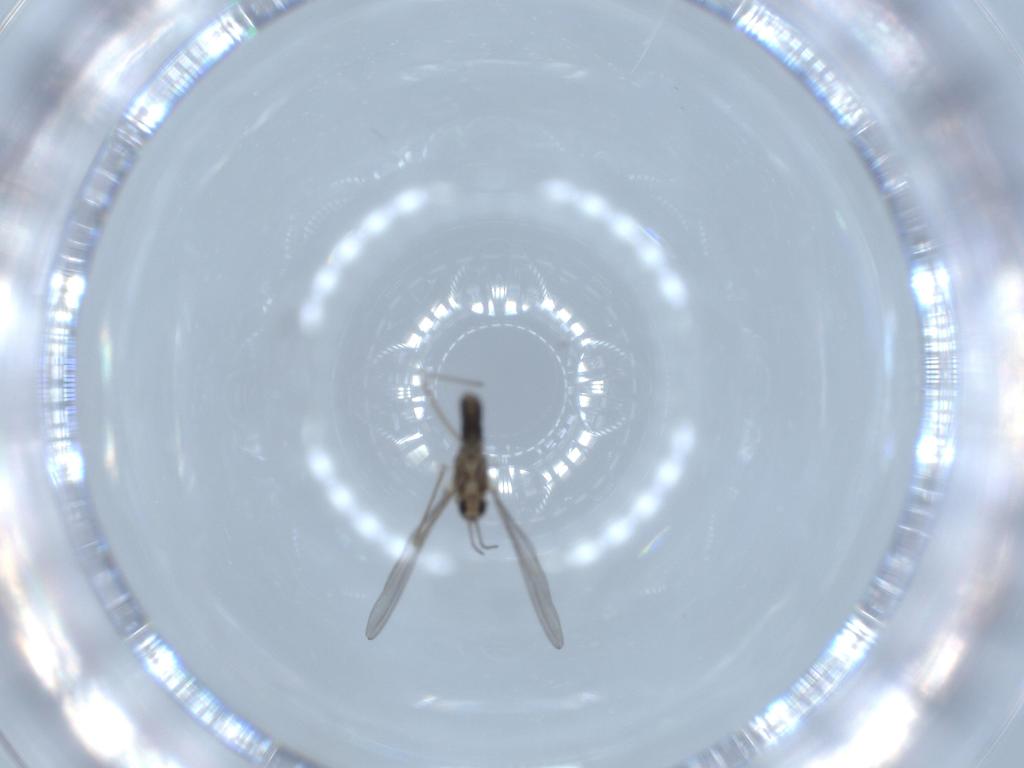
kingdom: Animalia
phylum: Arthropoda
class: Insecta
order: Diptera
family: Cecidomyiidae
